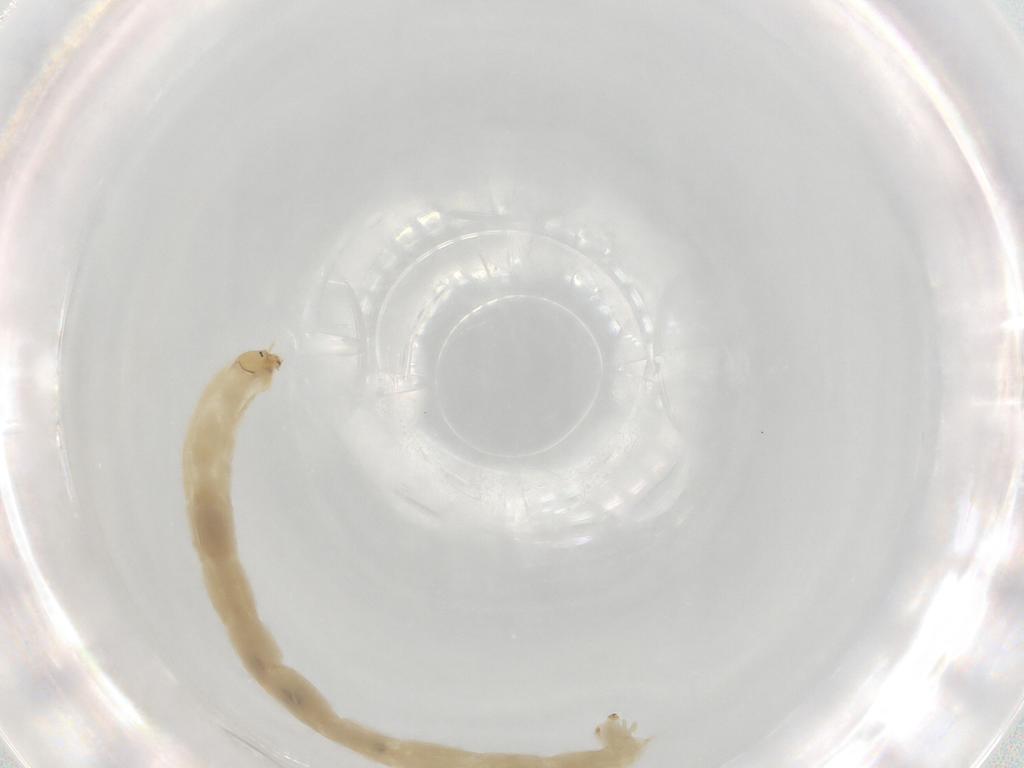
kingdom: Animalia
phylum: Arthropoda
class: Insecta
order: Diptera
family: Chironomidae
